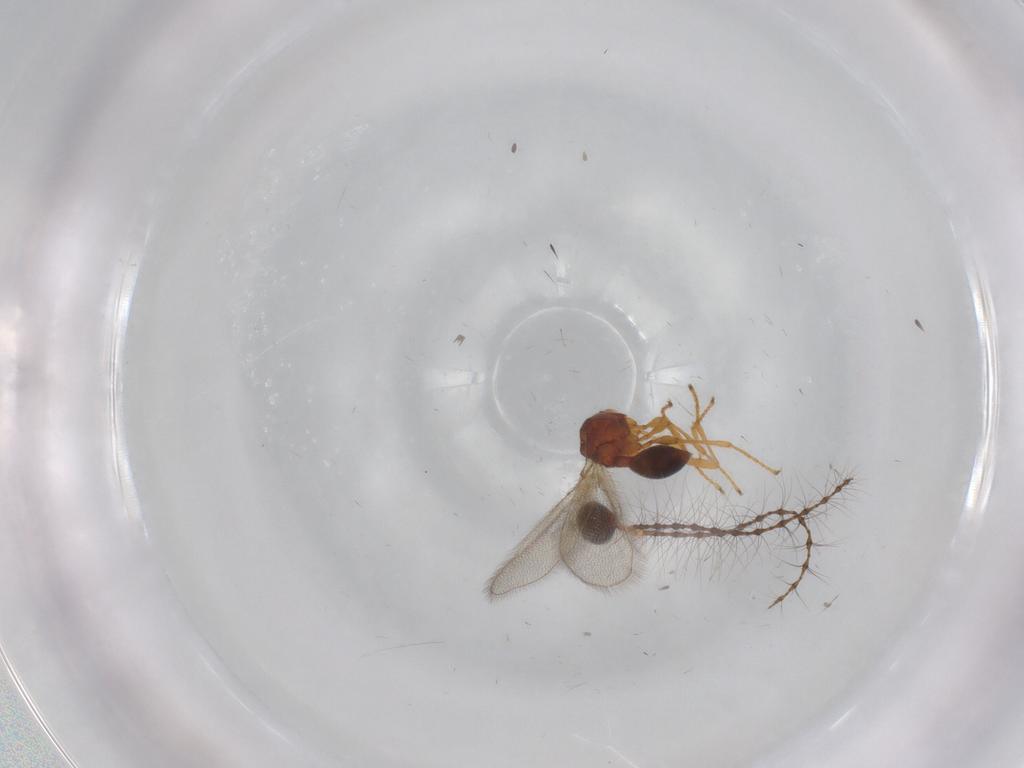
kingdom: Animalia
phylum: Arthropoda
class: Insecta
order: Hymenoptera
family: Diapriidae
